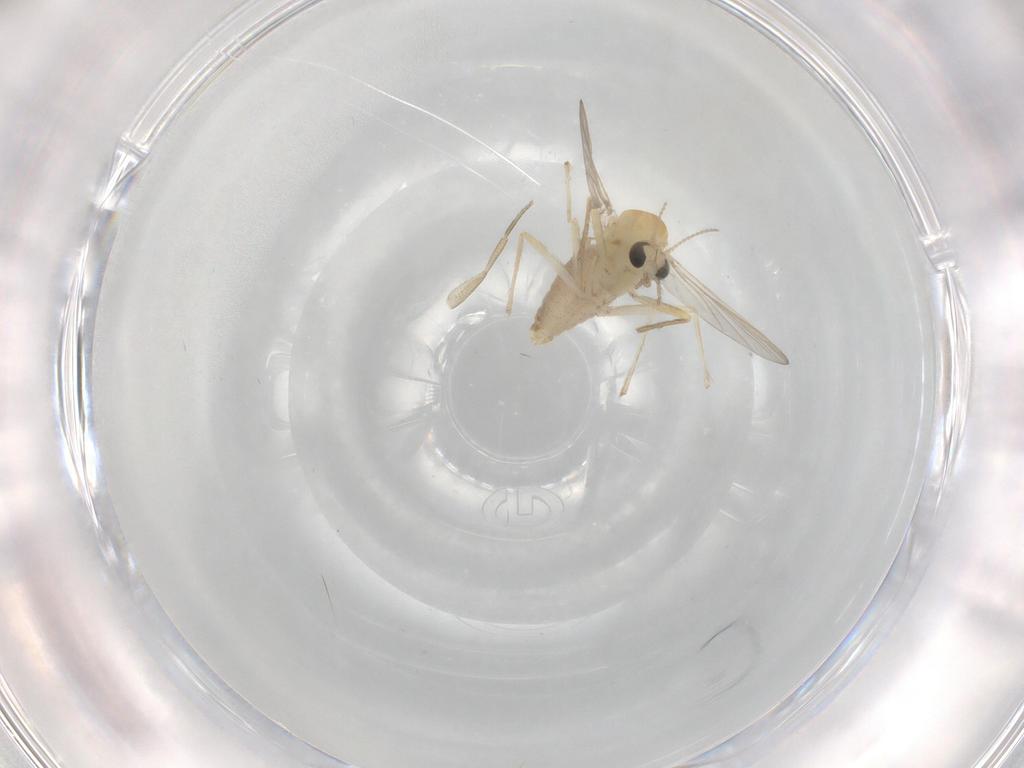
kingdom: Animalia
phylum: Arthropoda
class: Insecta
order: Diptera
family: Chironomidae
